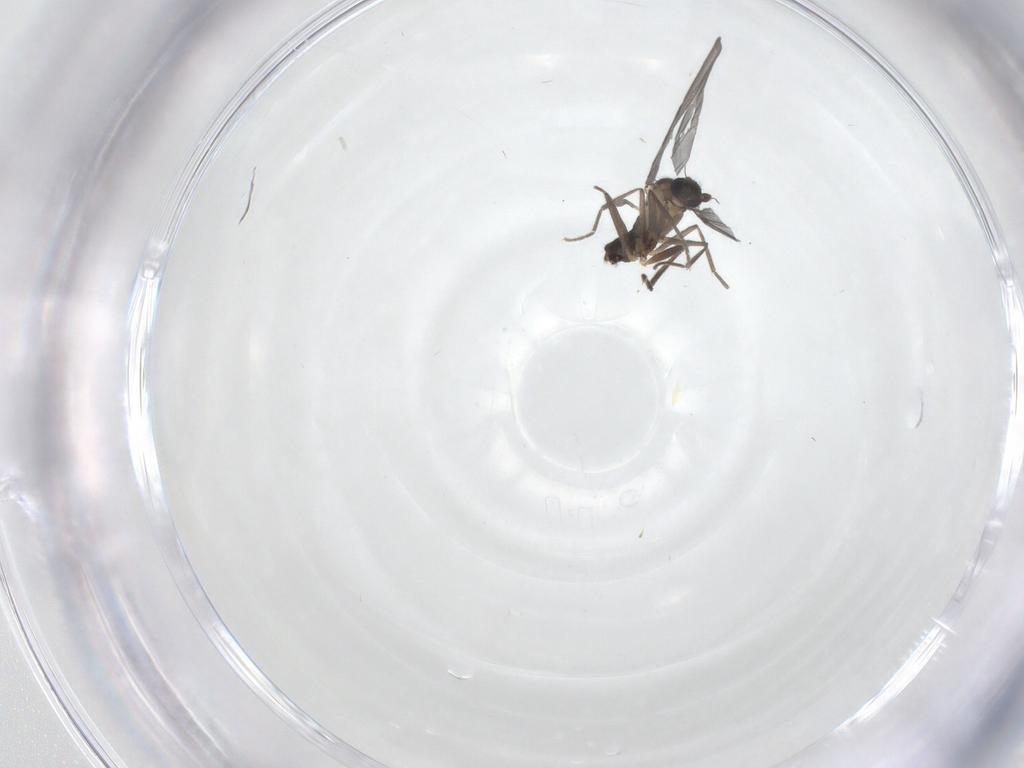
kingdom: Animalia
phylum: Arthropoda
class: Insecta
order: Diptera
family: Phoridae
